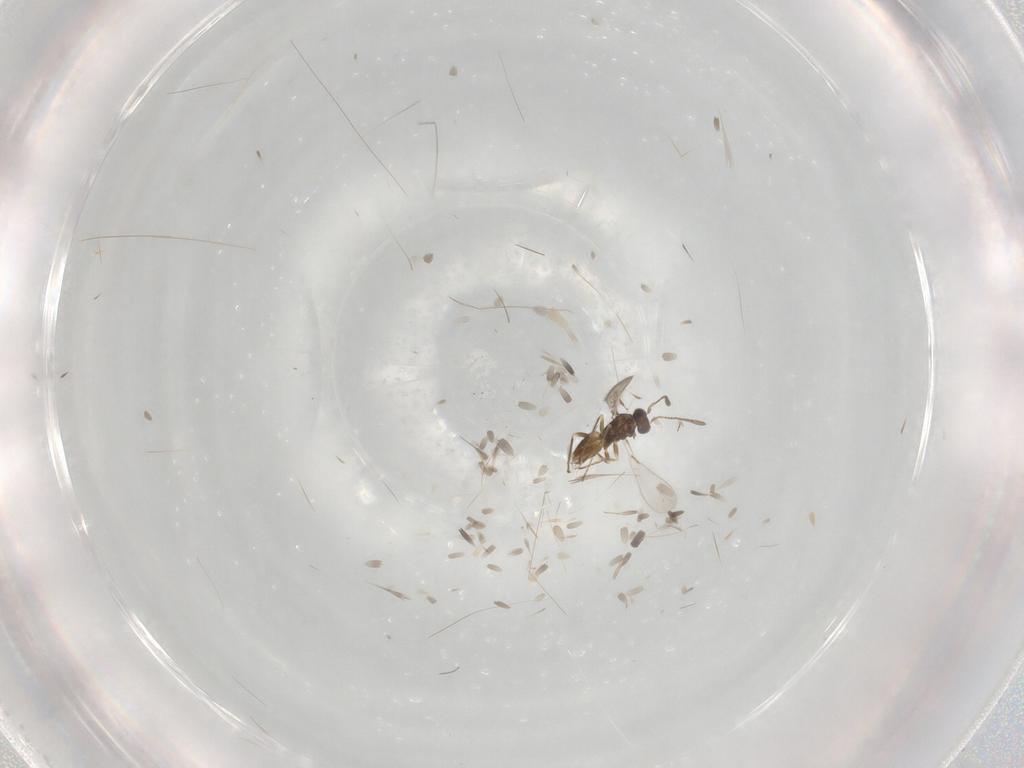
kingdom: Animalia
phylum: Arthropoda
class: Insecta
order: Hymenoptera
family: Mymaridae
